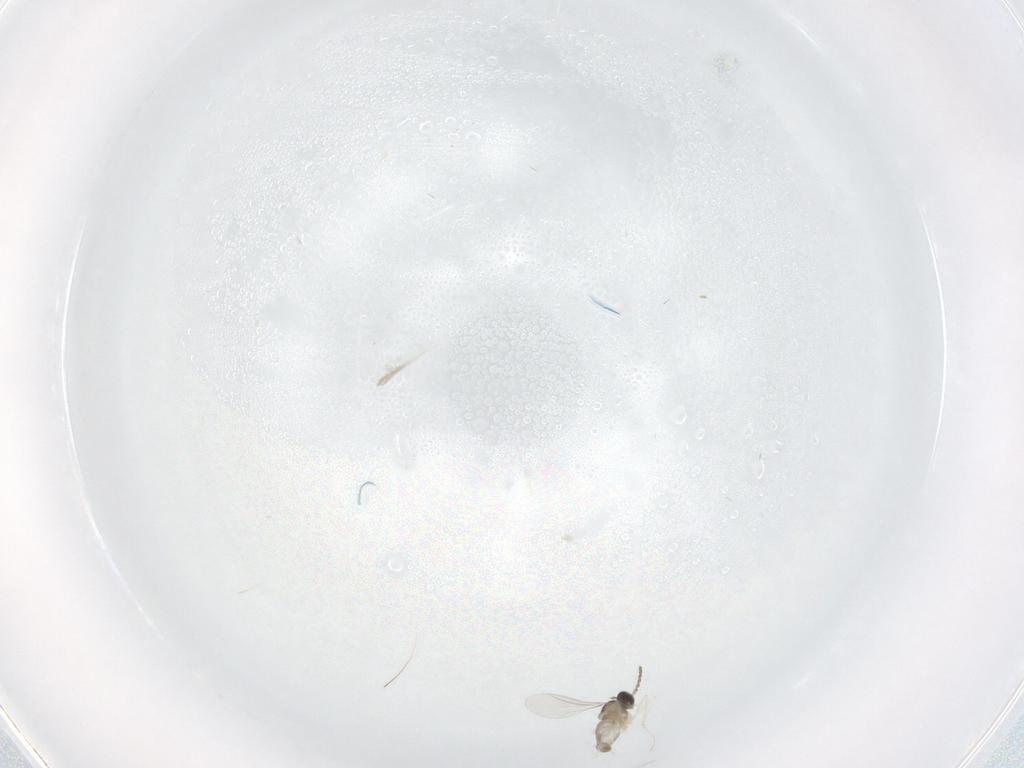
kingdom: Animalia
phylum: Arthropoda
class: Insecta
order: Diptera
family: Cecidomyiidae
